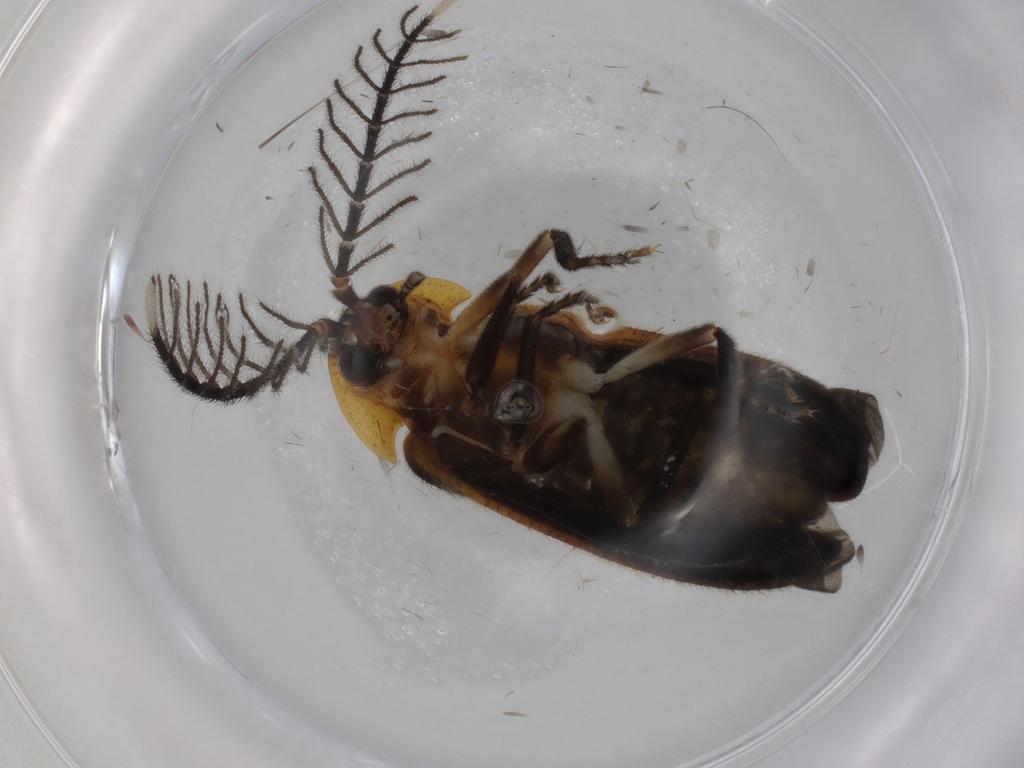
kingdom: Animalia
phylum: Arthropoda
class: Insecta
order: Coleoptera
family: Lampyridae
